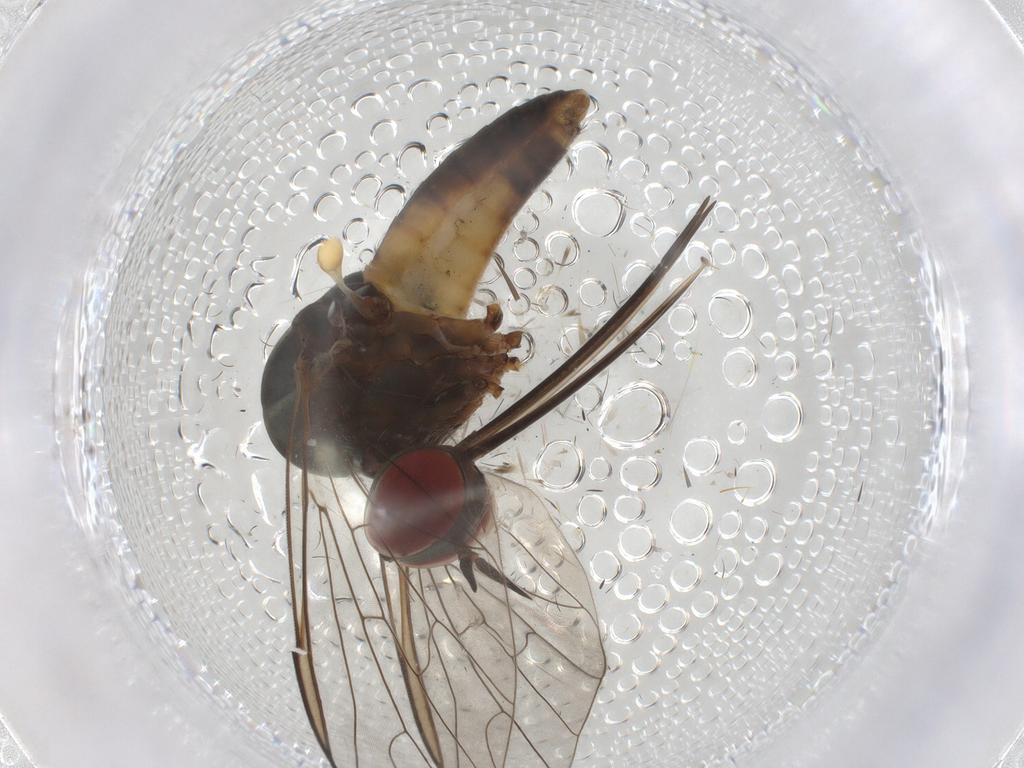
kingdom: Animalia
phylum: Arthropoda
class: Insecta
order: Diptera
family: Bombyliidae
